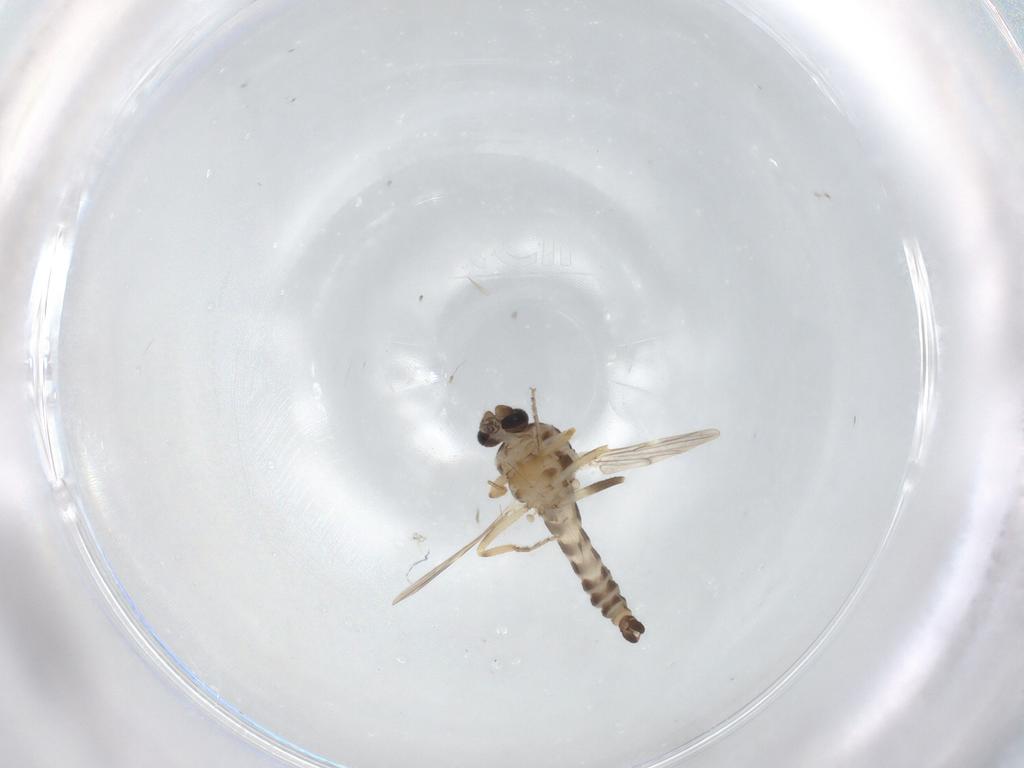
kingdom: Animalia
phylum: Arthropoda
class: Insecta
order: Diptera
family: Ceratopogonidae
